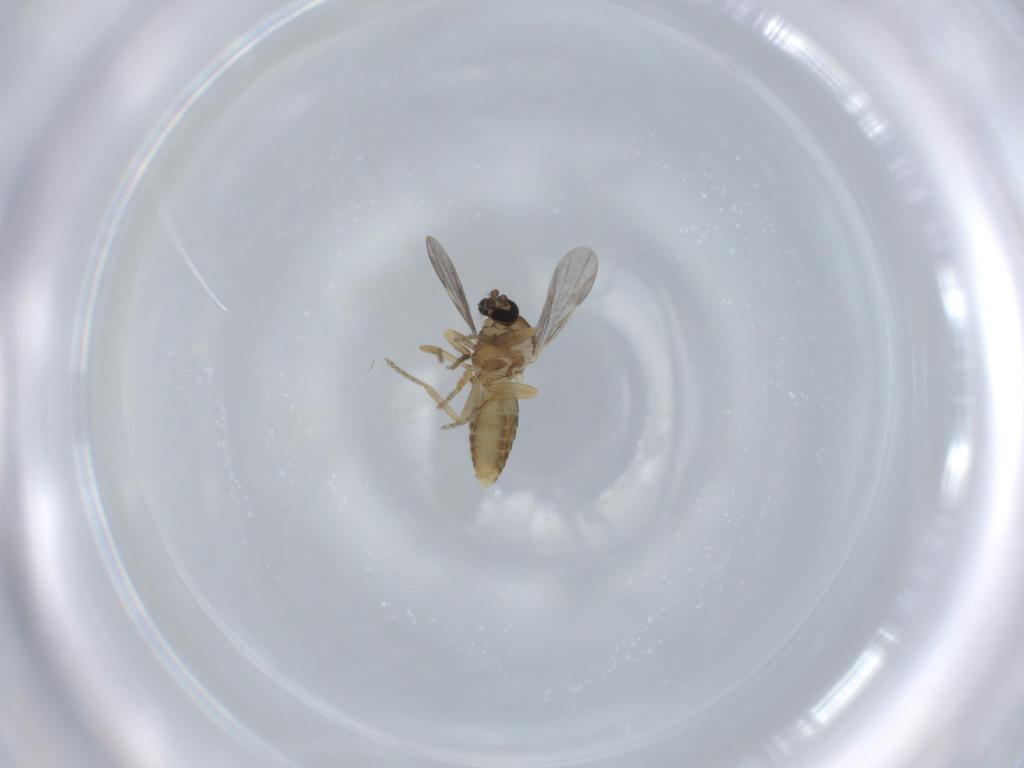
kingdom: Animalia
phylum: Arthropoda
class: Insecta
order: Diptera
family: Ceratopogonidae
